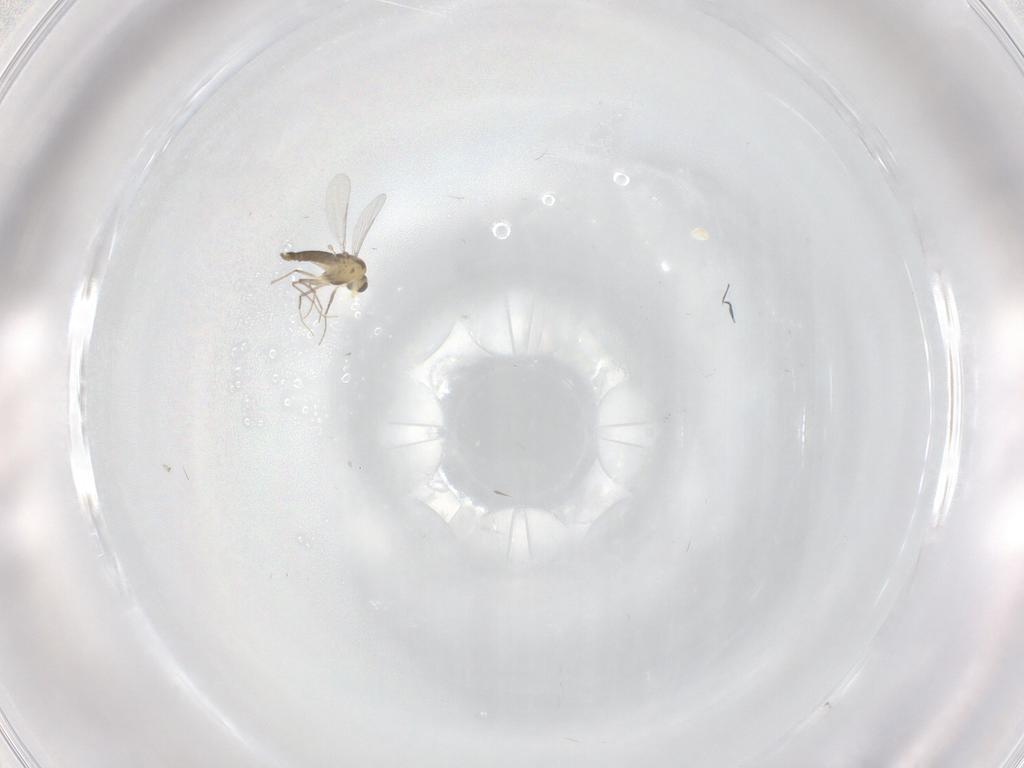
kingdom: Animalia
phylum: Arthropoda
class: Insecta
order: Diptera
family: Chironomidae
